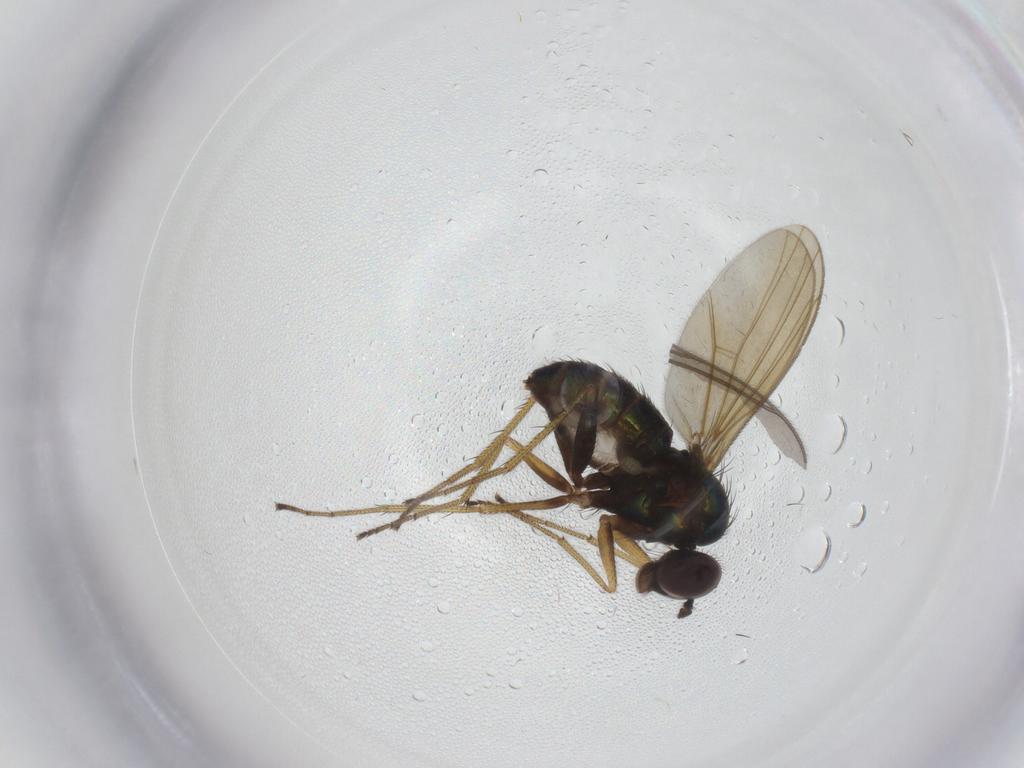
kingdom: Animalia
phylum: Arthropoda
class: Insecta
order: Diptera
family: Dolichopodidae
